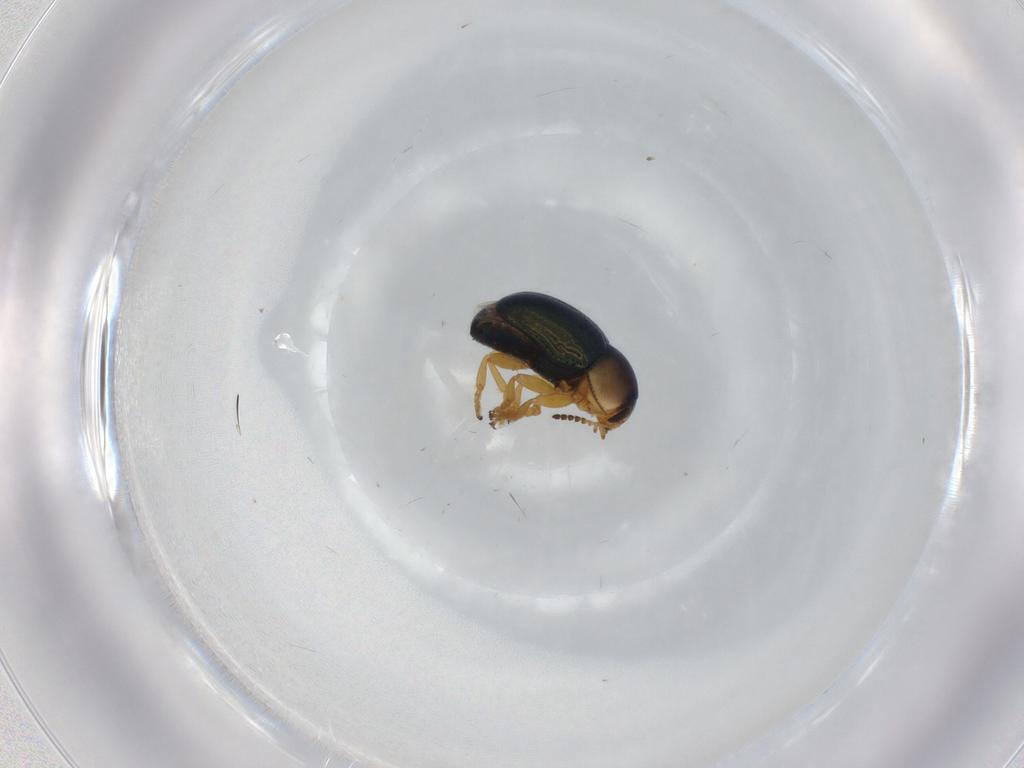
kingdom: Animalia
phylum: Arthropoda
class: Insecta
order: Coleoptera
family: Chrysomelidae
